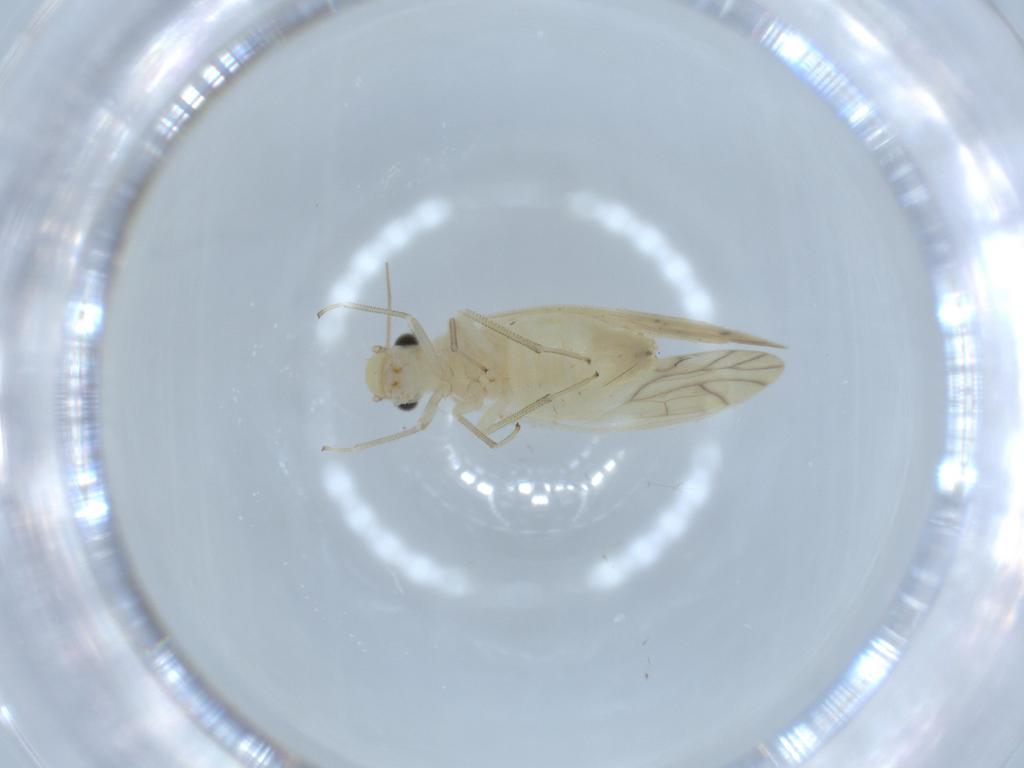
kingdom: Animalia
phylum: Arthropoda
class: Insecta
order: Psocodea
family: Caeciliusidae
